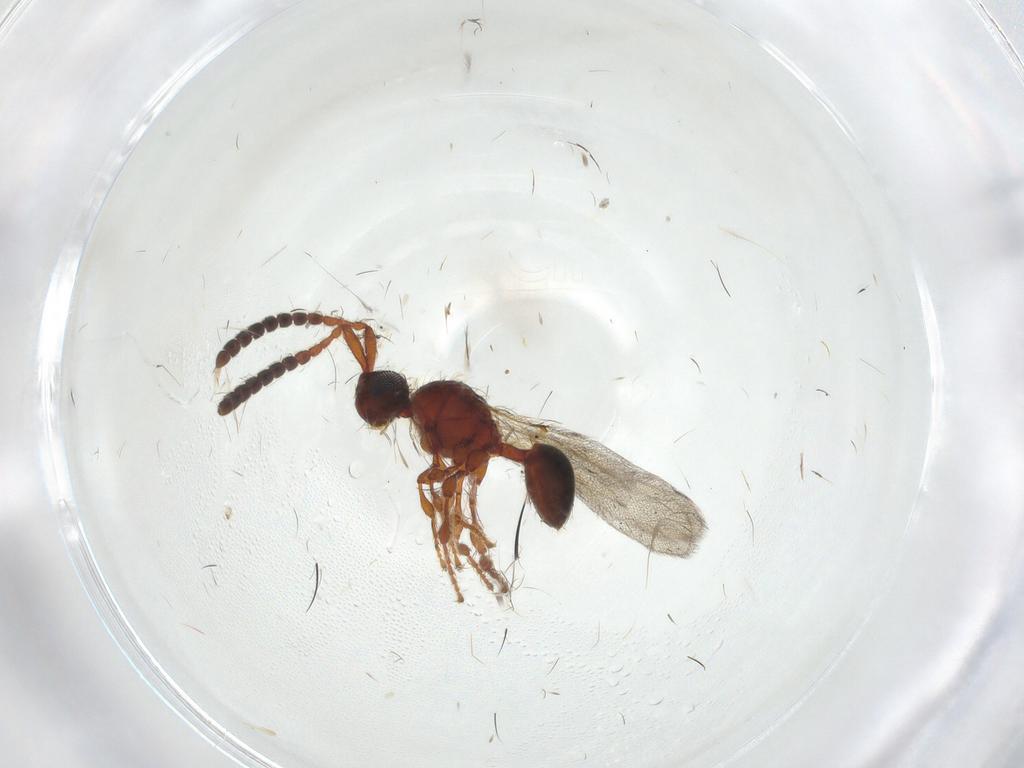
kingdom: Animalia
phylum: Arthropoda
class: Insecta
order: Hymenoptera
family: Diapriidae
